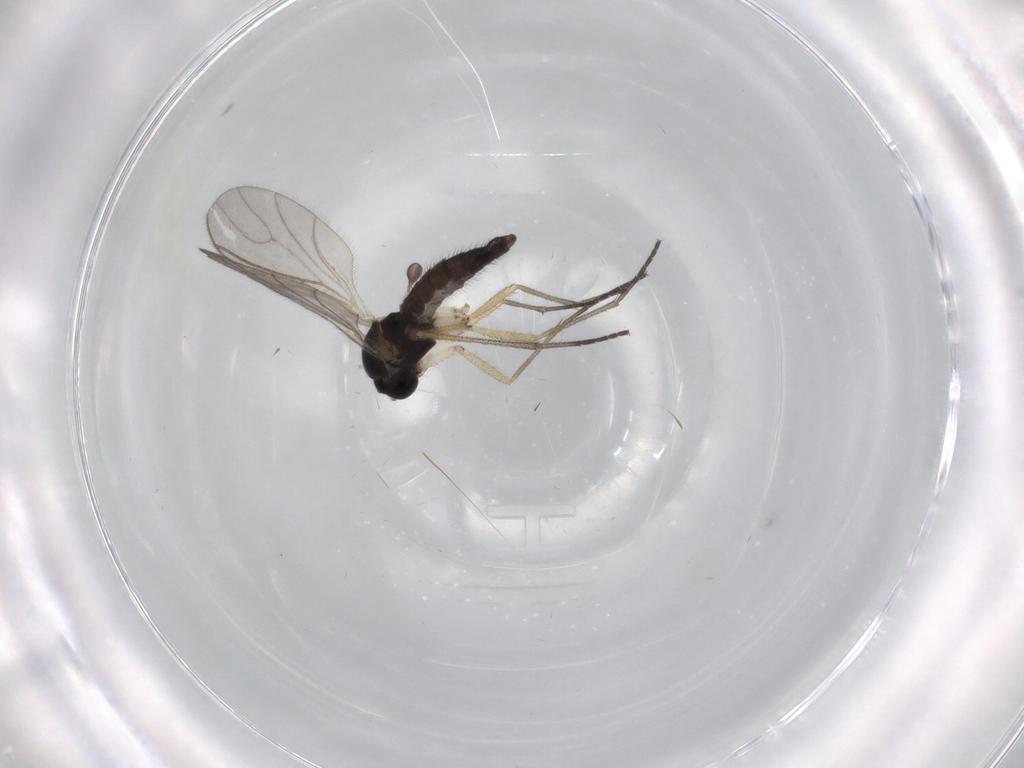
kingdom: Animalia
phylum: Arthropoda
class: Insecta
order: Diptera
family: Sciaridae
